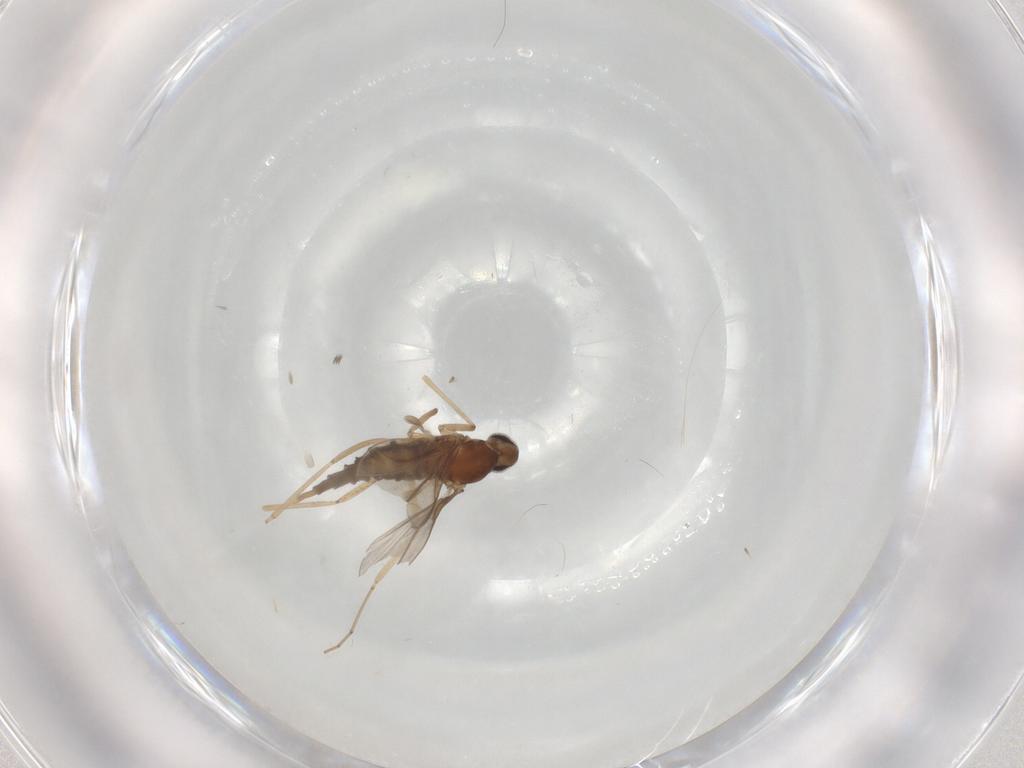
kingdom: Animalia
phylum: Arthropoda
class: Insecta
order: Diptera
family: Cecidomyiidae
